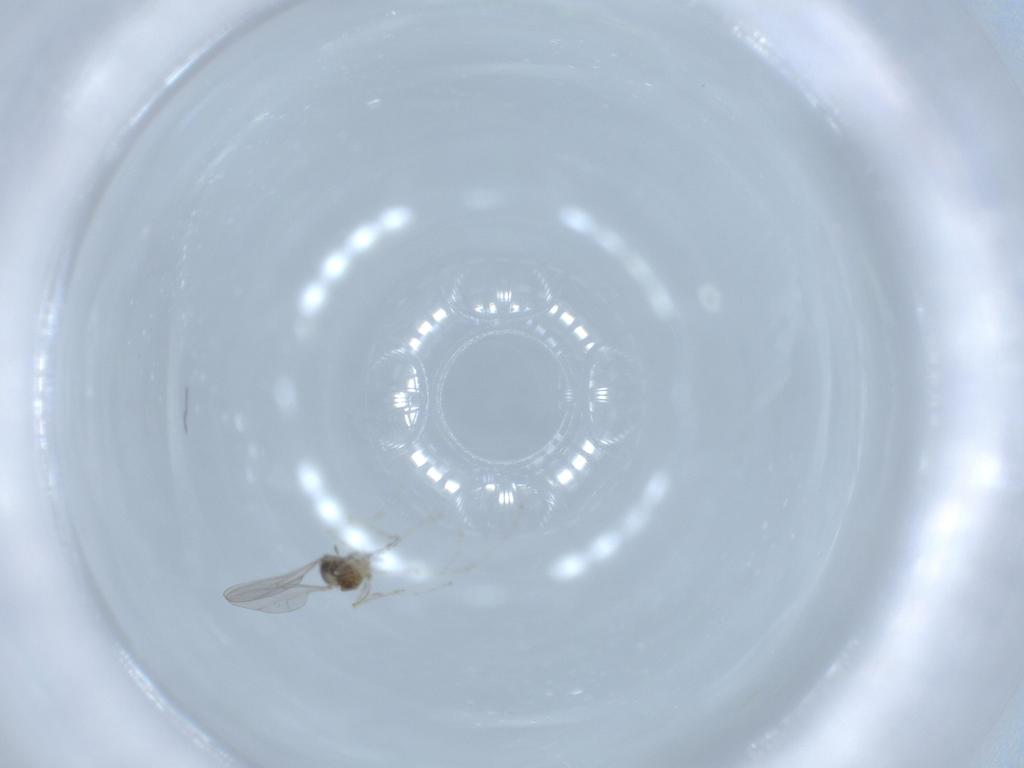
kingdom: Animalia
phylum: Arthropoda
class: Insecta
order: Diptera
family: Cecidomyiidae
